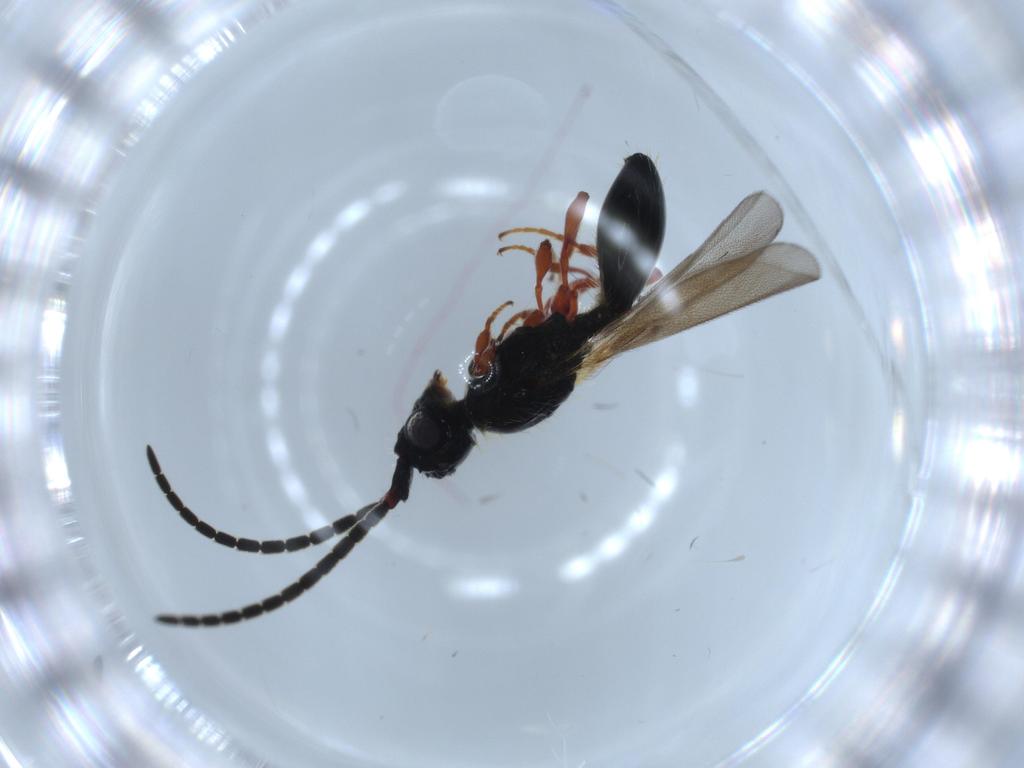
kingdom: Animalia
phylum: Arthropoda
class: Insecta
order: Hymenoptera
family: Diapriidae
